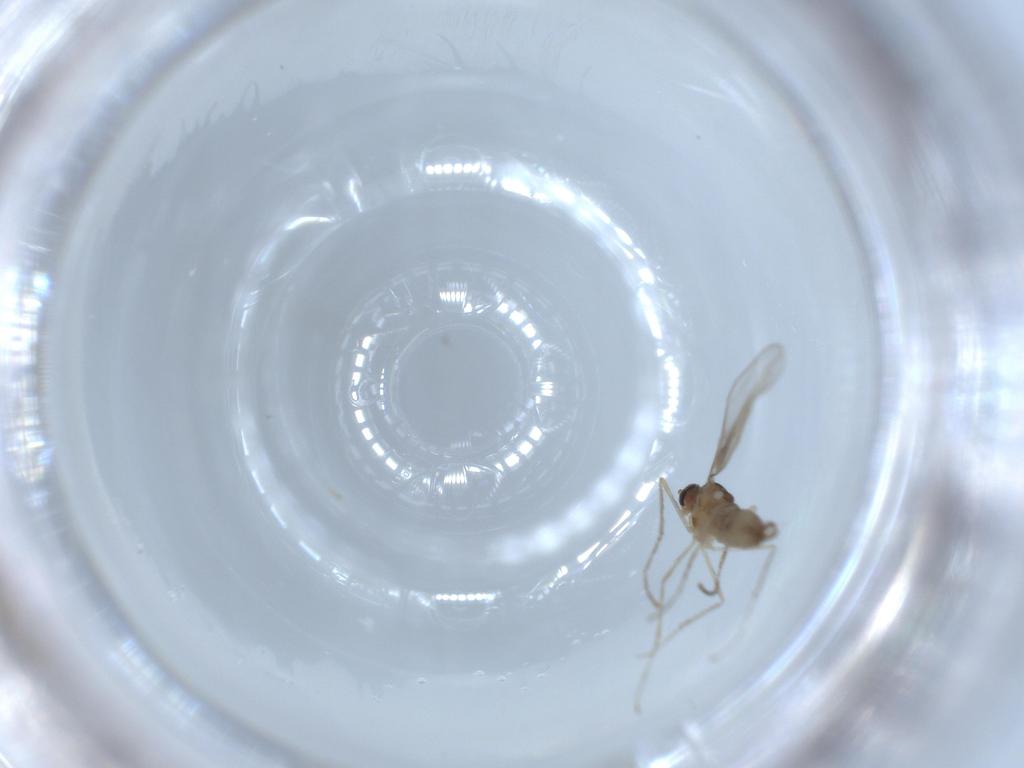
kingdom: Animalia
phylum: Arthropoda
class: Insecta
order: Diptera
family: Cecidomyiidae
